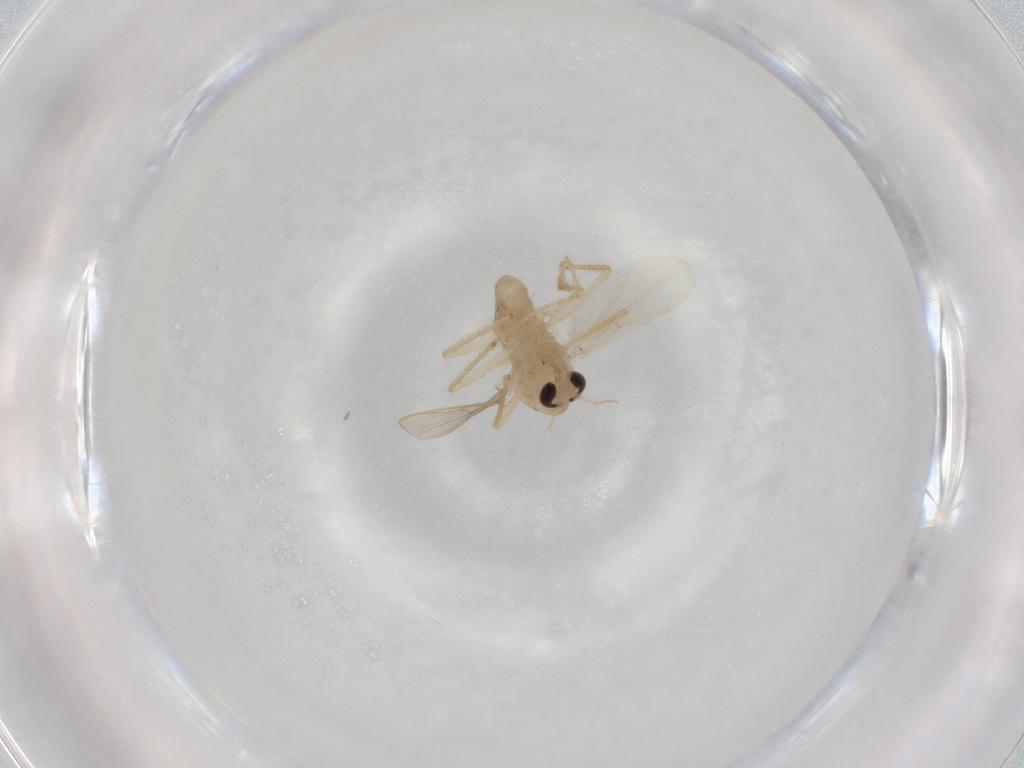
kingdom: Animalia
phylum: Arthropoda
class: Insecta
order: Diptera
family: Chironomidae
